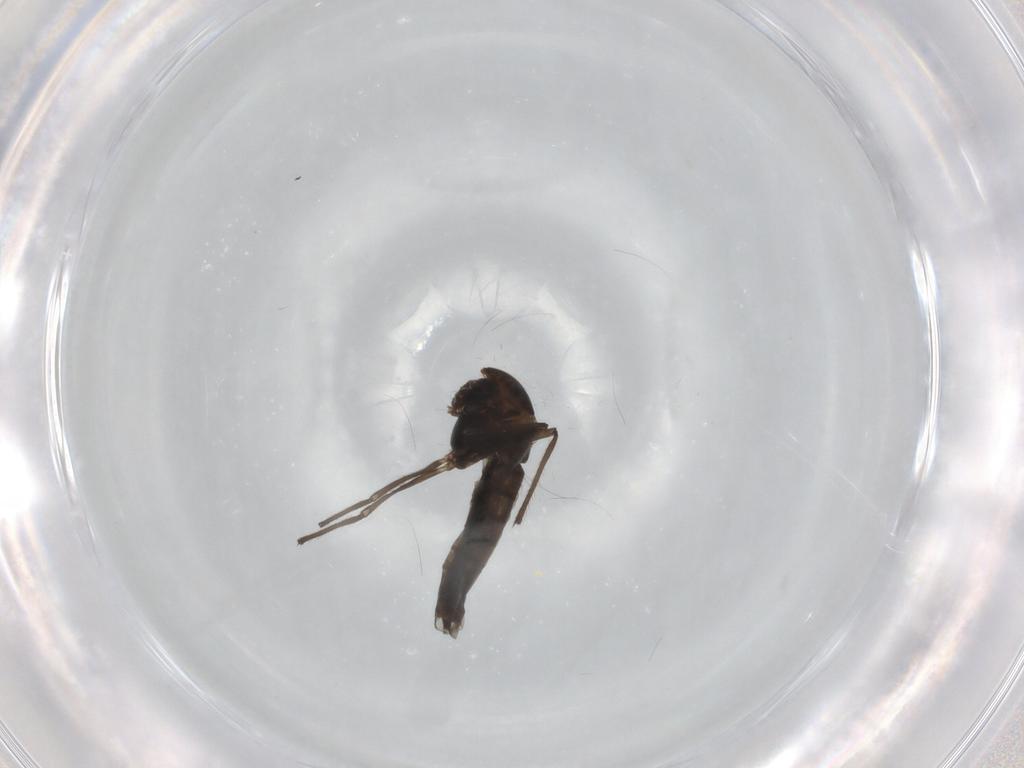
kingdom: Animalia
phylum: Arthropoda
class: Insecta
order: Diptera
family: Chironomidae
